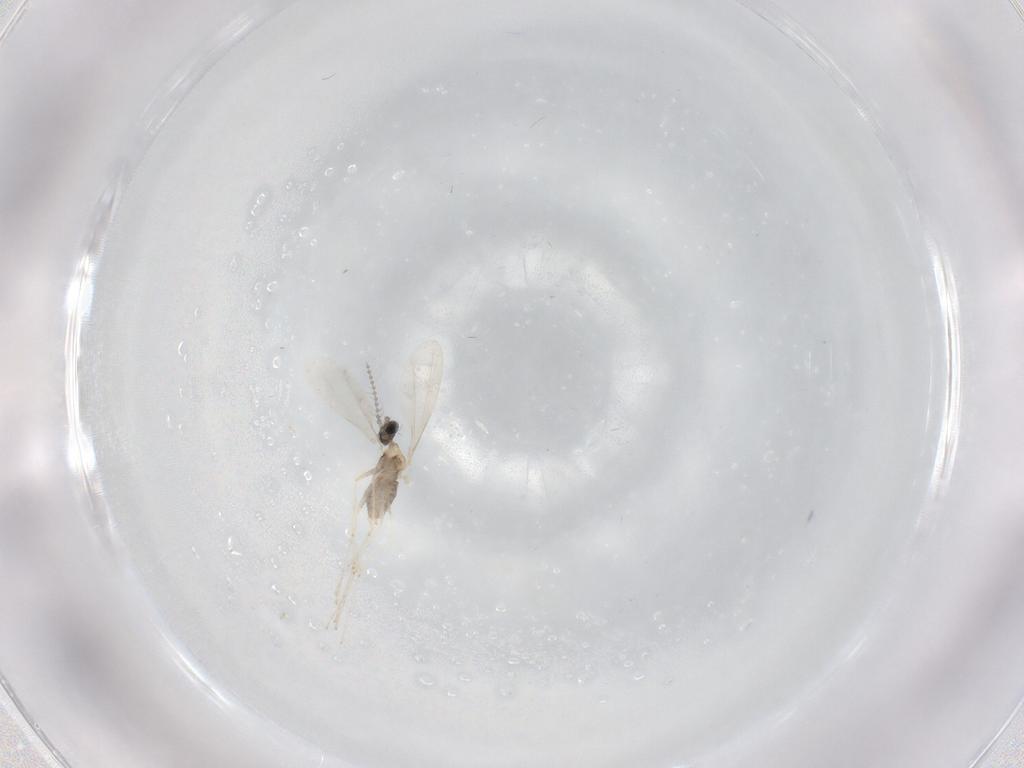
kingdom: Animalia
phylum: Arthropoda
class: Insecta
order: Diptera
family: Cecidomyiidae
